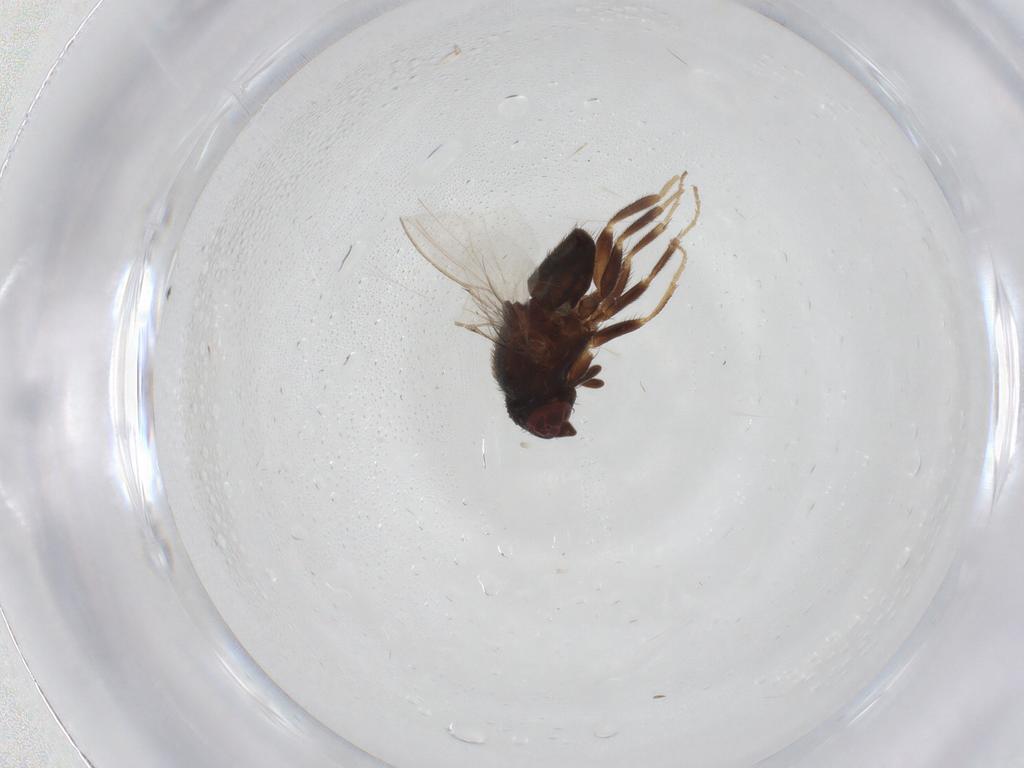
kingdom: Animalia
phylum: Arthropoda
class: Insecta
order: Diptera
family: Milichiidae
